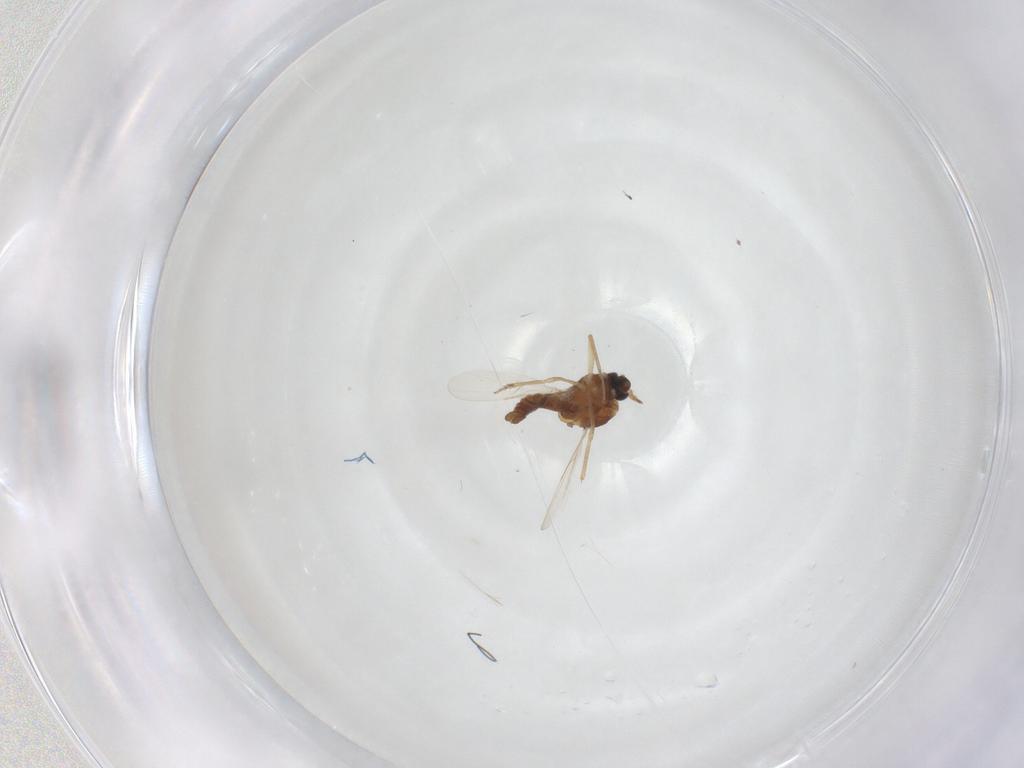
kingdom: Animalia
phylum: Arthropoda
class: Insecta
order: Diptera
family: Ceratopogonidae
